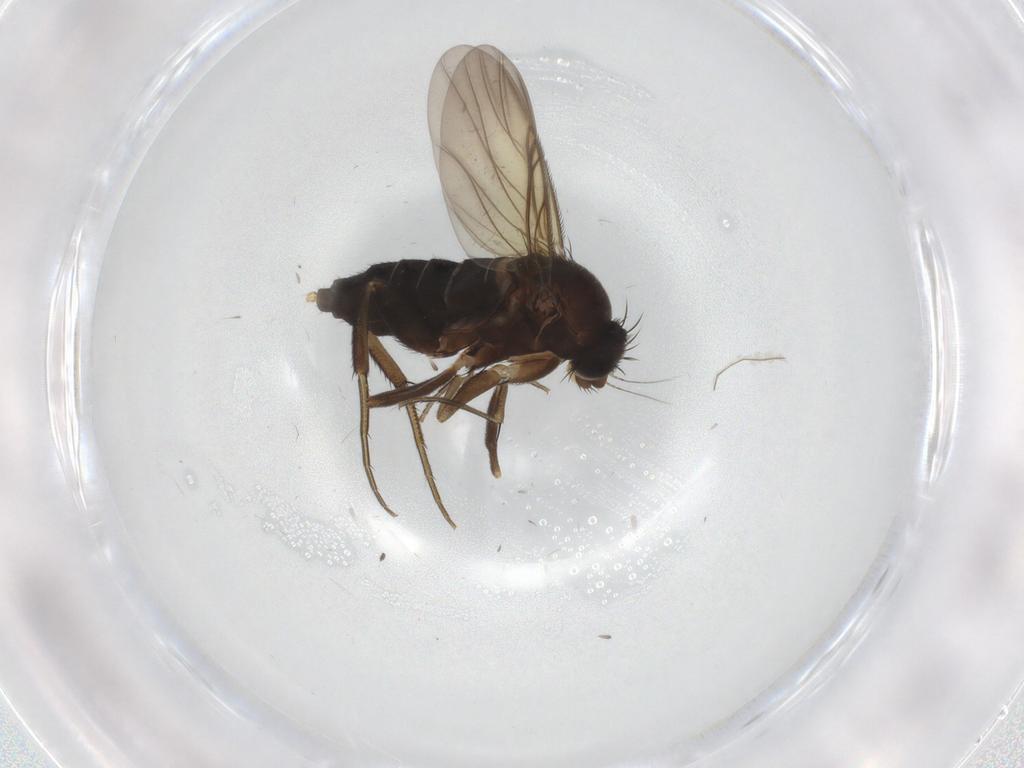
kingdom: Animalia
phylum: Arthropoda
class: Insecta
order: Diptera
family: Phoridae
